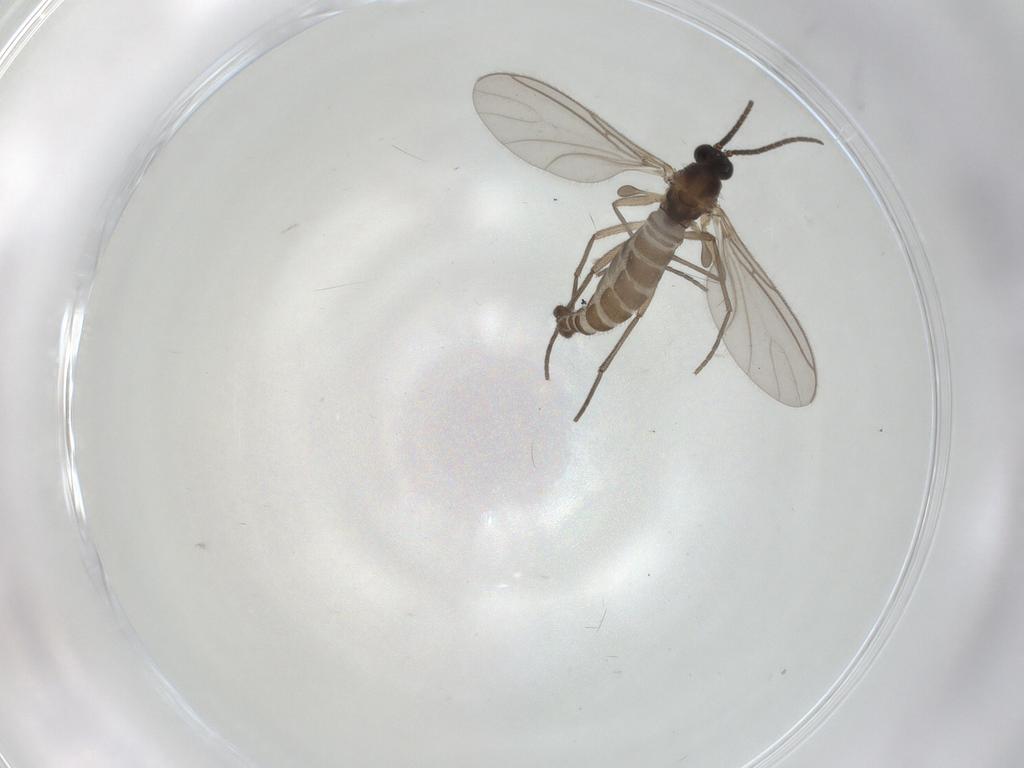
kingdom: Animalia
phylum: Arthropoda
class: Insecta
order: Diptera
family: Sciaridae
